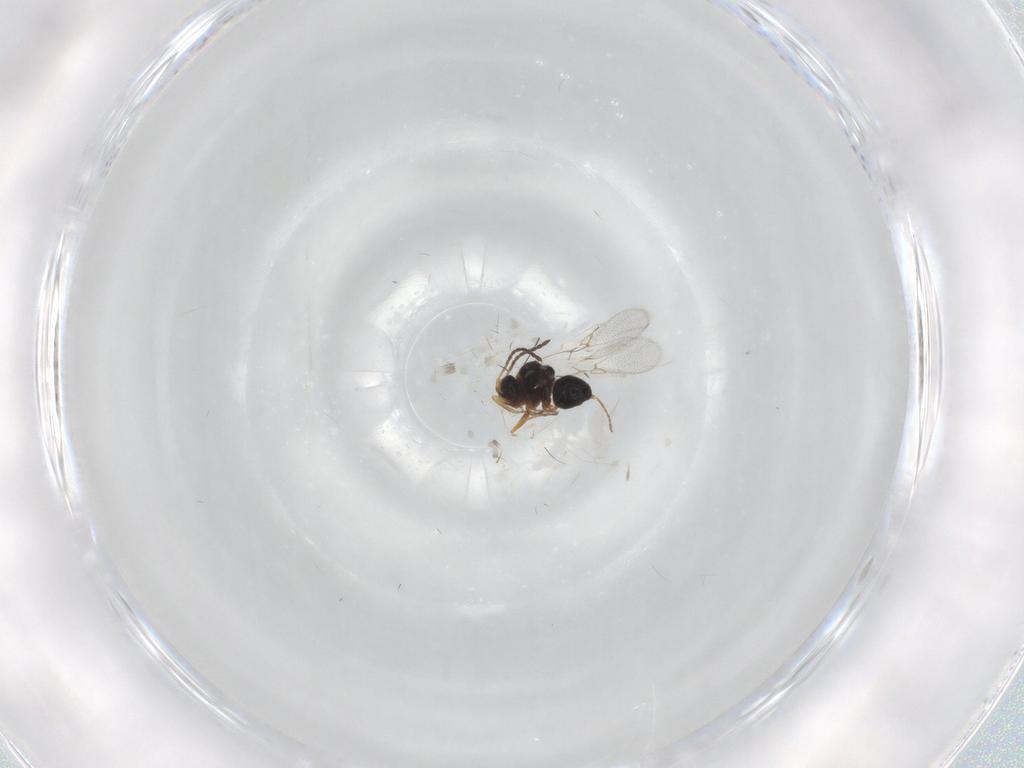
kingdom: Animalia
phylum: Arthropoda
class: Insecta
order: Hymenoptera
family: Figitidae
